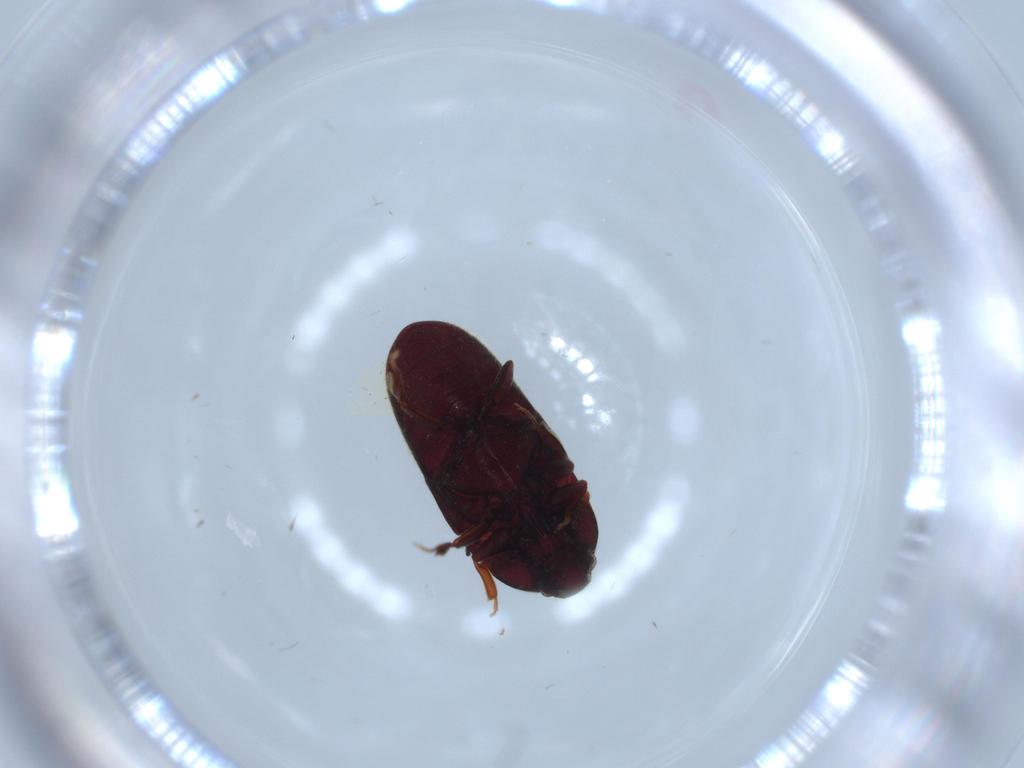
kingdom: Animalia
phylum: Arthropoda
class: Insecta
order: Coleoptera
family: Throscidae
